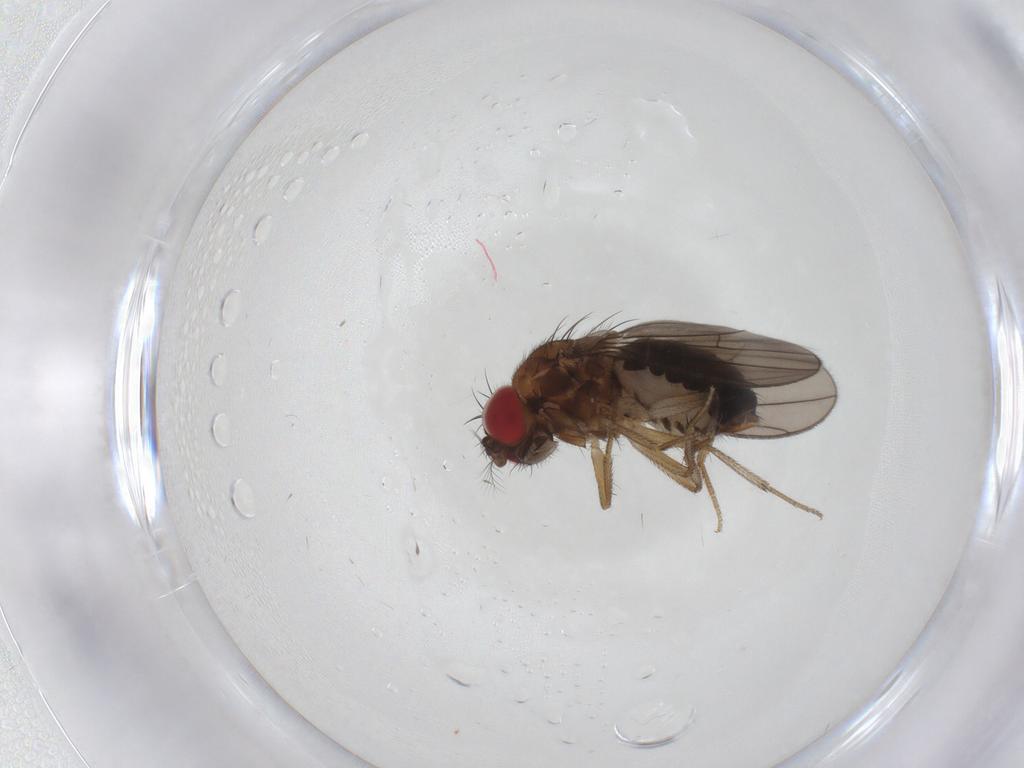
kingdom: Animalia
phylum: Arthropoda
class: Insecta
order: Diptera
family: Drosophilidae
